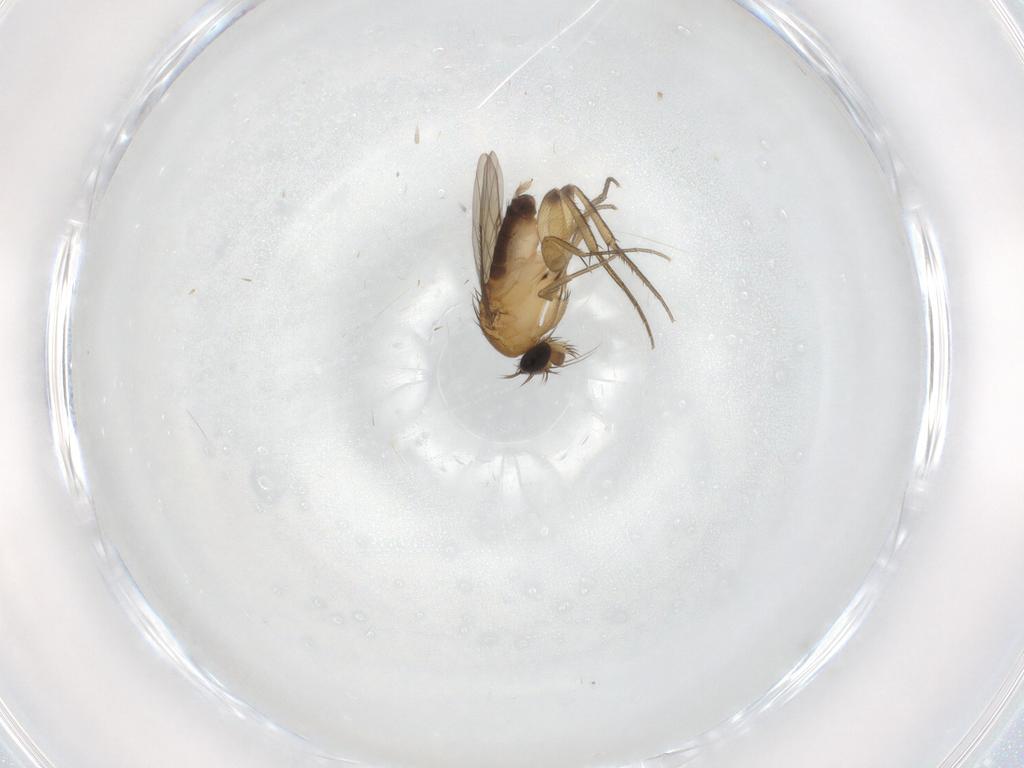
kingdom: Animalia
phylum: Arthropoda
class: Insecta
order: Diptera
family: Phoridae
